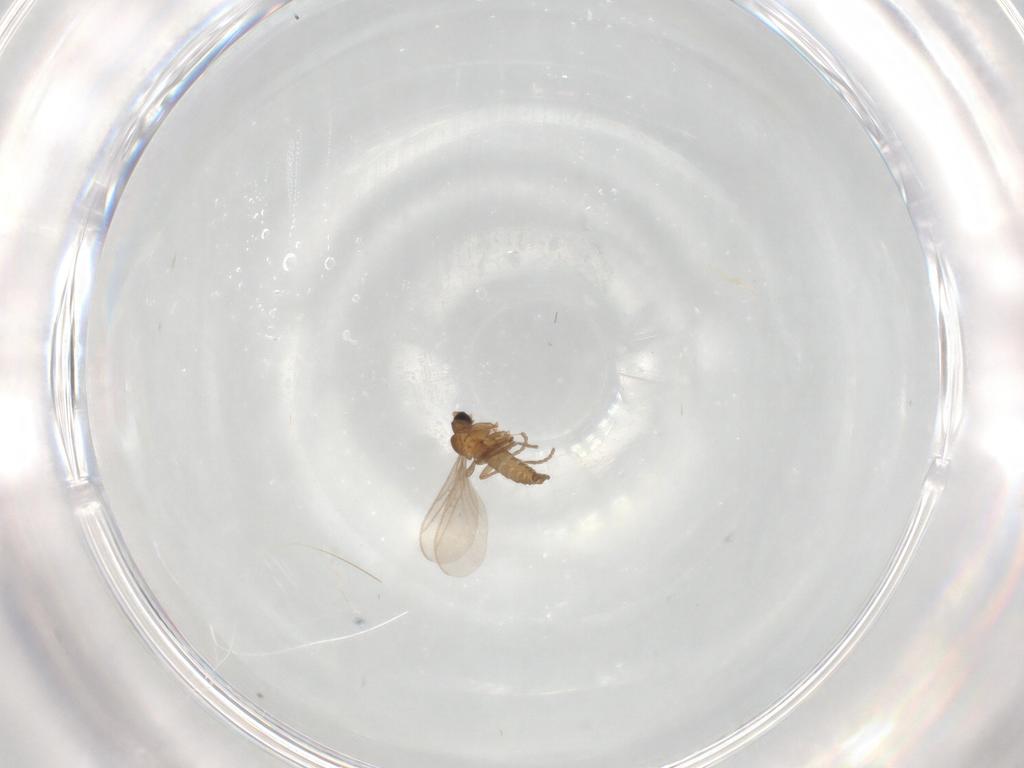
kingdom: Animalia
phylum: Arthropoda
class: Insecta
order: Diptera
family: Sciaridae
